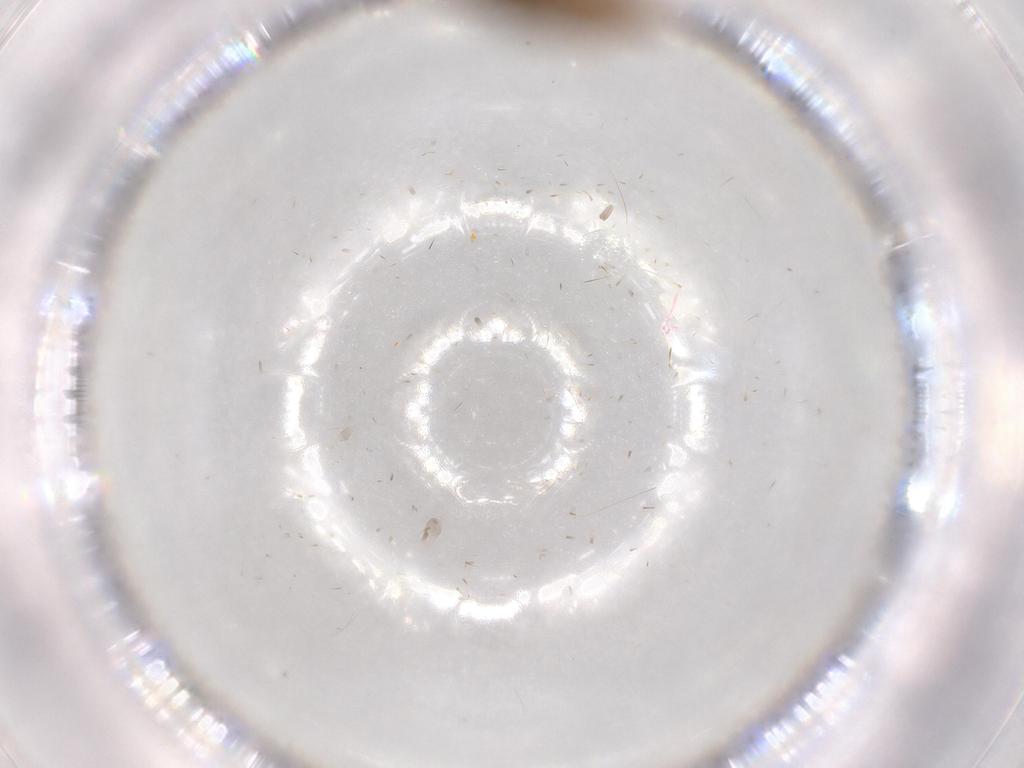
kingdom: Animalia
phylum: Arthropoda
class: Insecta
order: Lepidoptera
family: Tineidae
